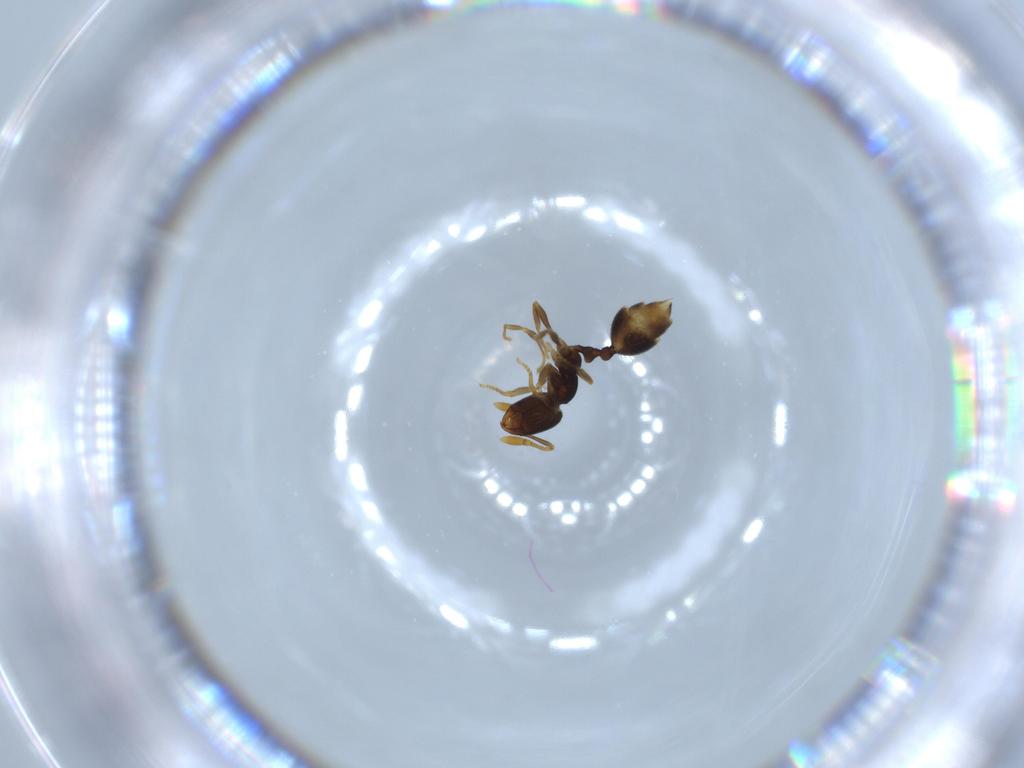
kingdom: Animalia
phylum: Arthropoda
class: Insecta
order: Hymenoptera
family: Formicidae
